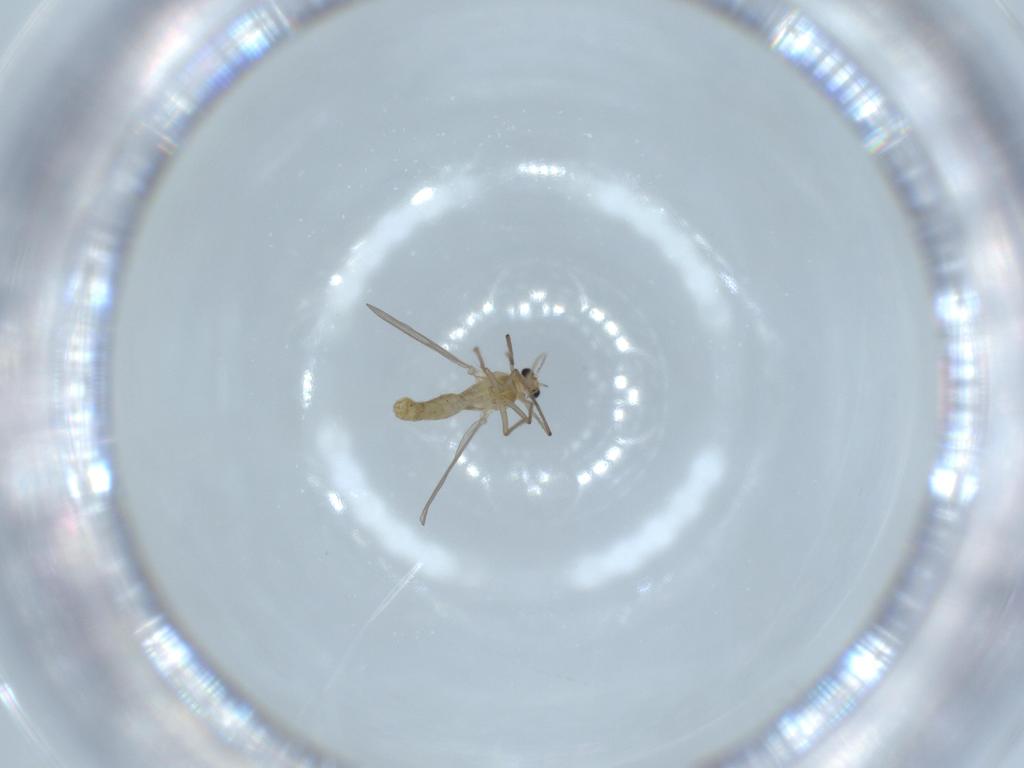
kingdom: Animalia
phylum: Arthropoda
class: Insecta
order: Diptera
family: Chironomidae
